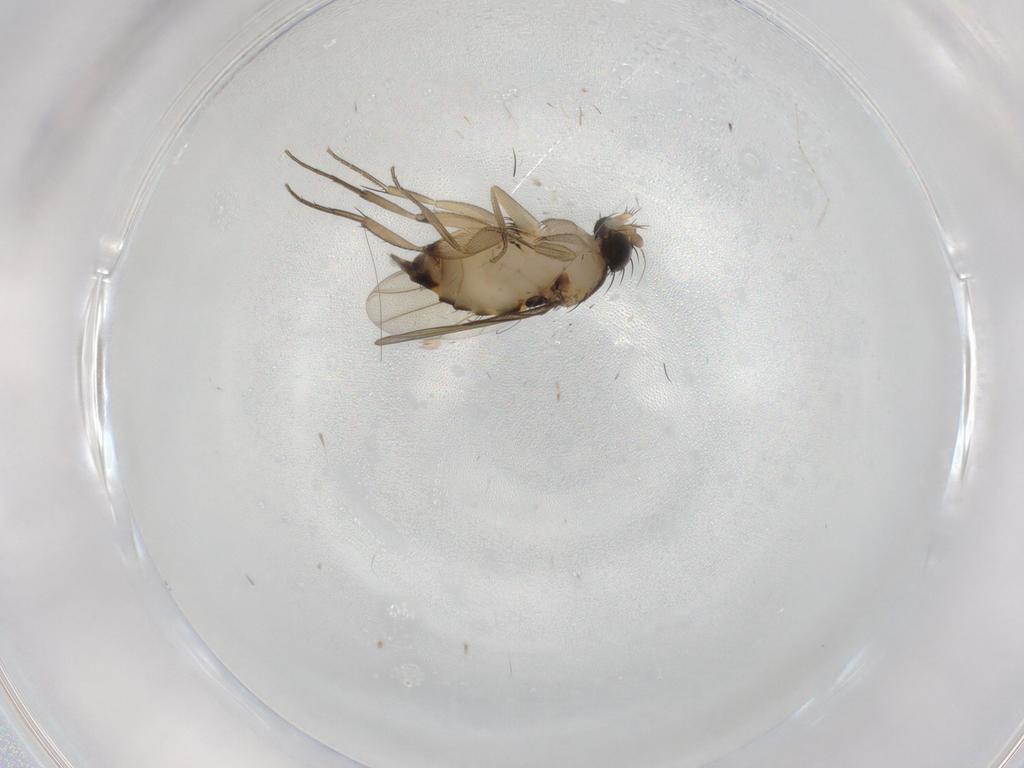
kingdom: Animalia
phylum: Arthropoda
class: Insecta
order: Diptera
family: Phoridae
